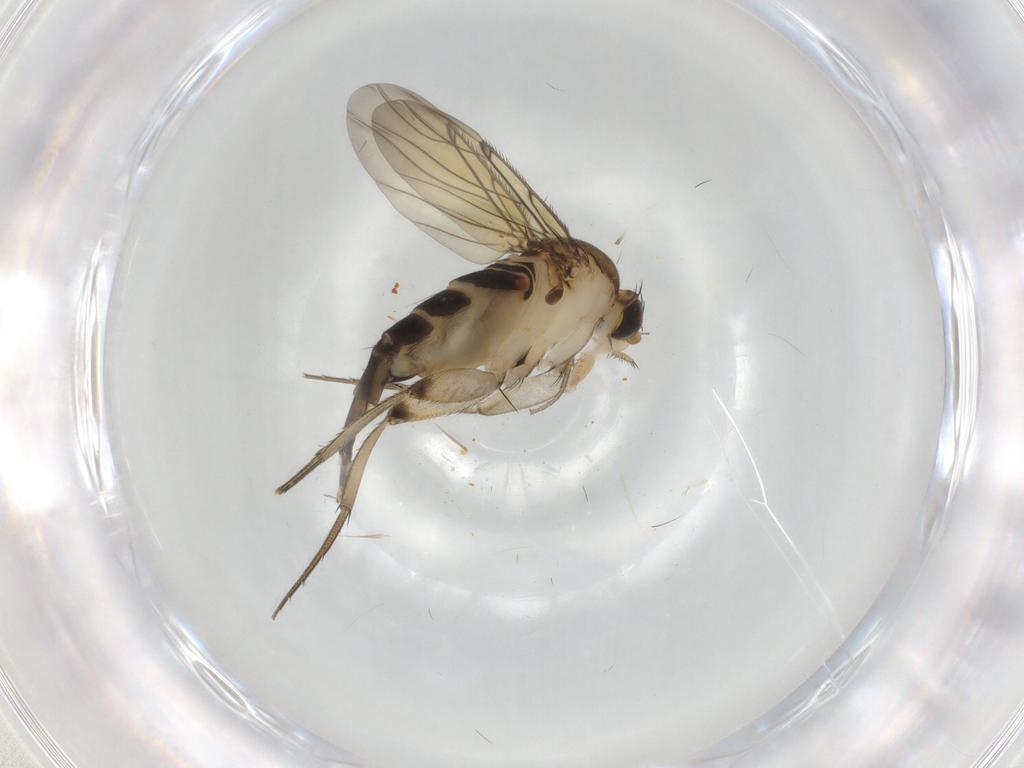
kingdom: Animalia
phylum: Arthropoda
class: Insecta
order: Diptera
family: Phoridae
